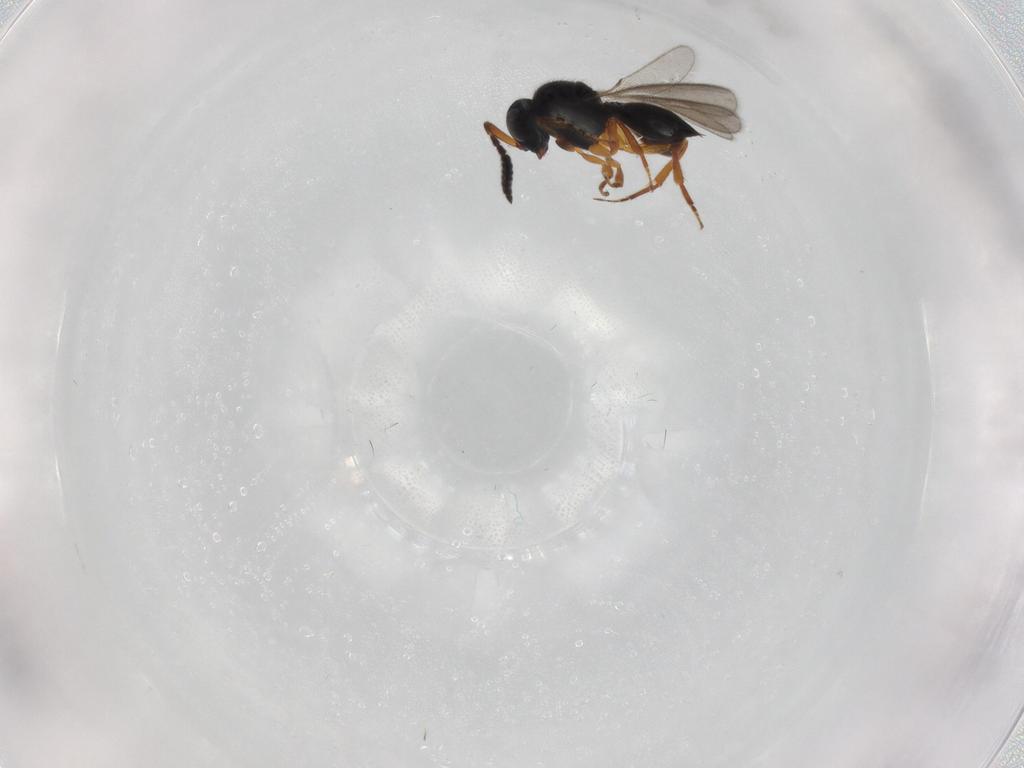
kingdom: Animalia
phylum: Arthropoda
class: Insecta
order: Hymenoptera
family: Scelionidae
